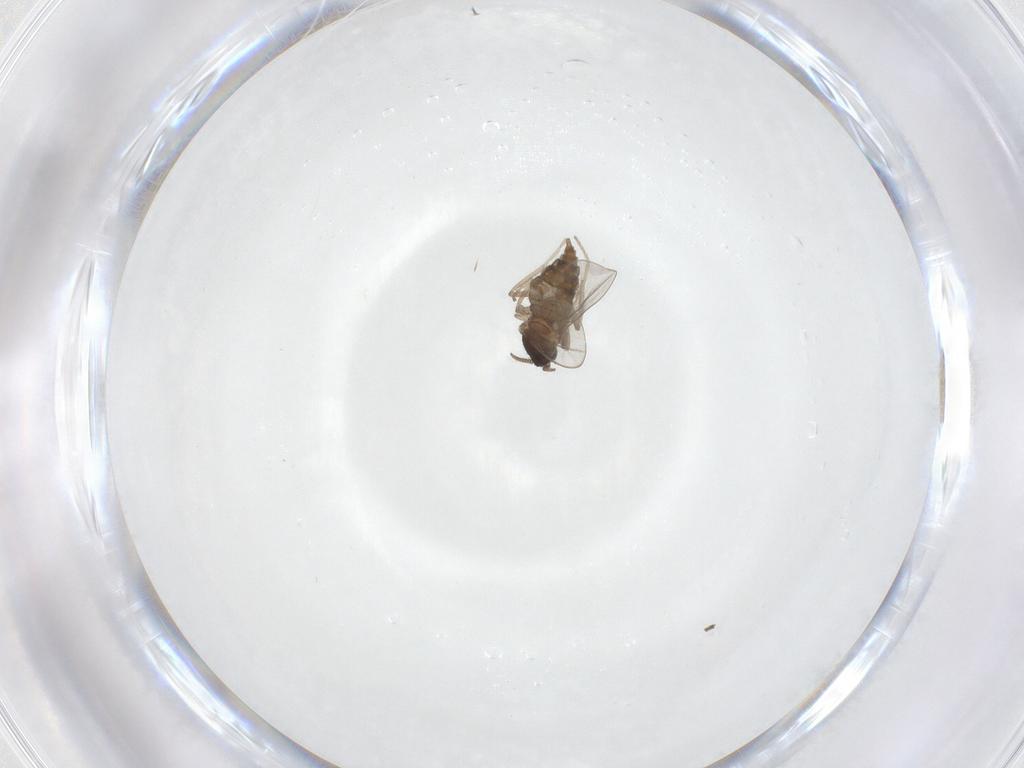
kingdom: Animalia
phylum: Arthropoda
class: Insecta
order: Diptera
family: Cecidomyiidae
